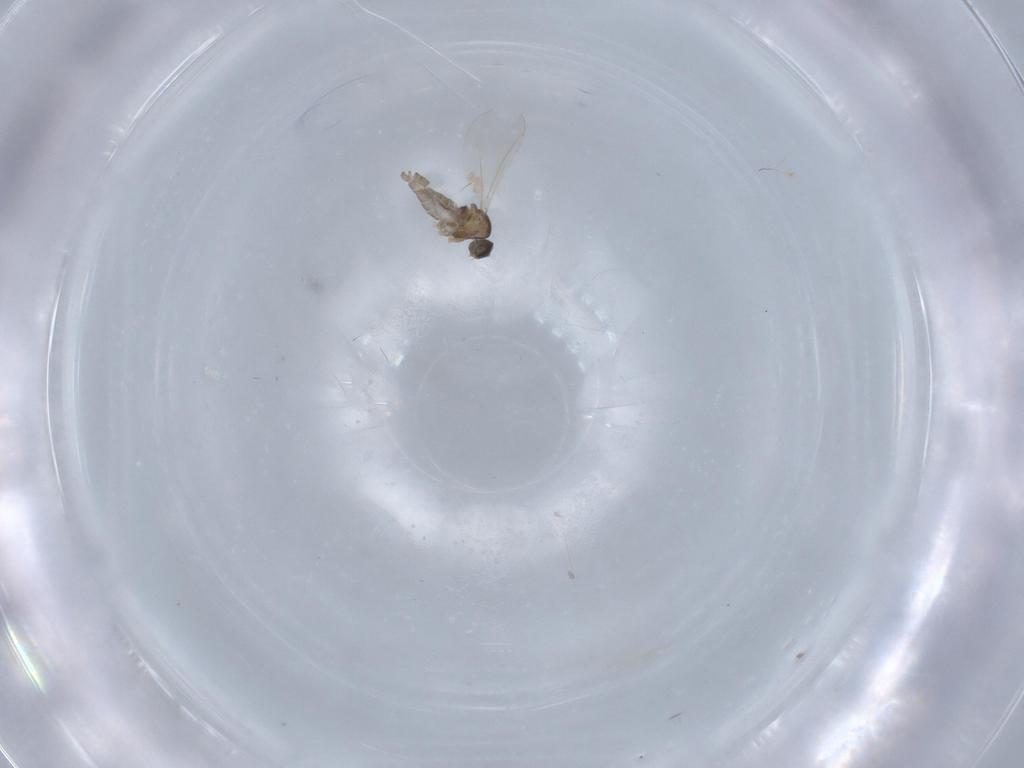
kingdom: Animalia
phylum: Arthropoda
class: Insecta
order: Diptera
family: Cecidomyiidae
